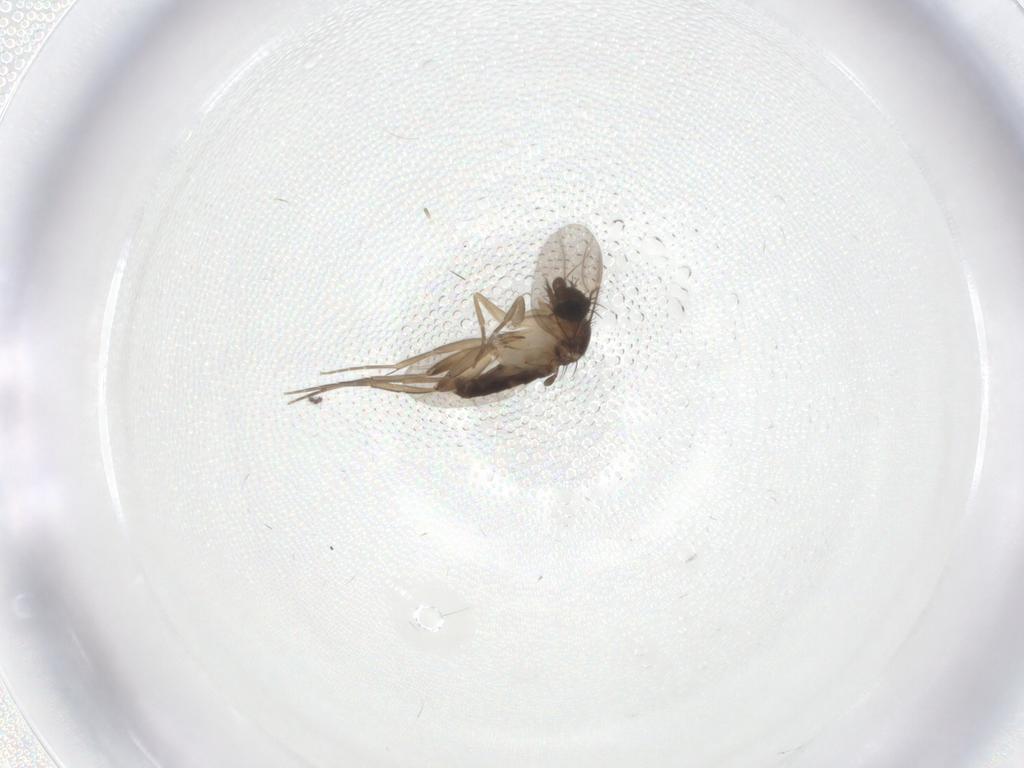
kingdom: Animalia
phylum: Arthropoda
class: Insecta
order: Diptera
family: Phoridae
